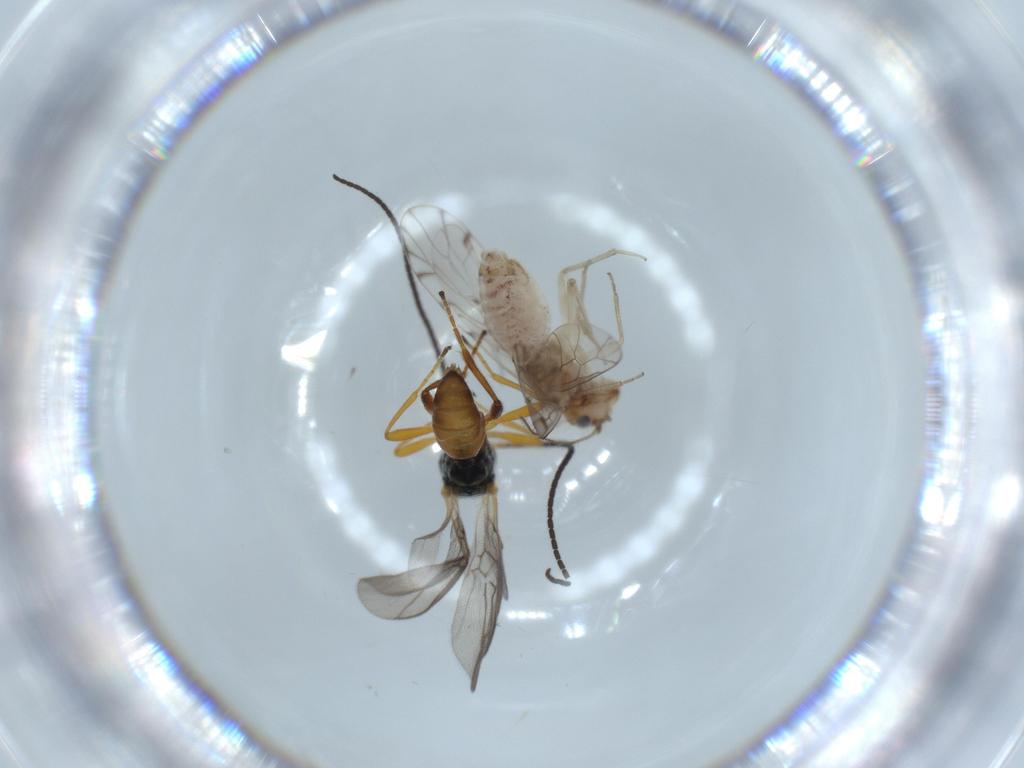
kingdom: Animalia
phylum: Arthropoda
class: Insecta
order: Hymenoptera
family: Braconidae
